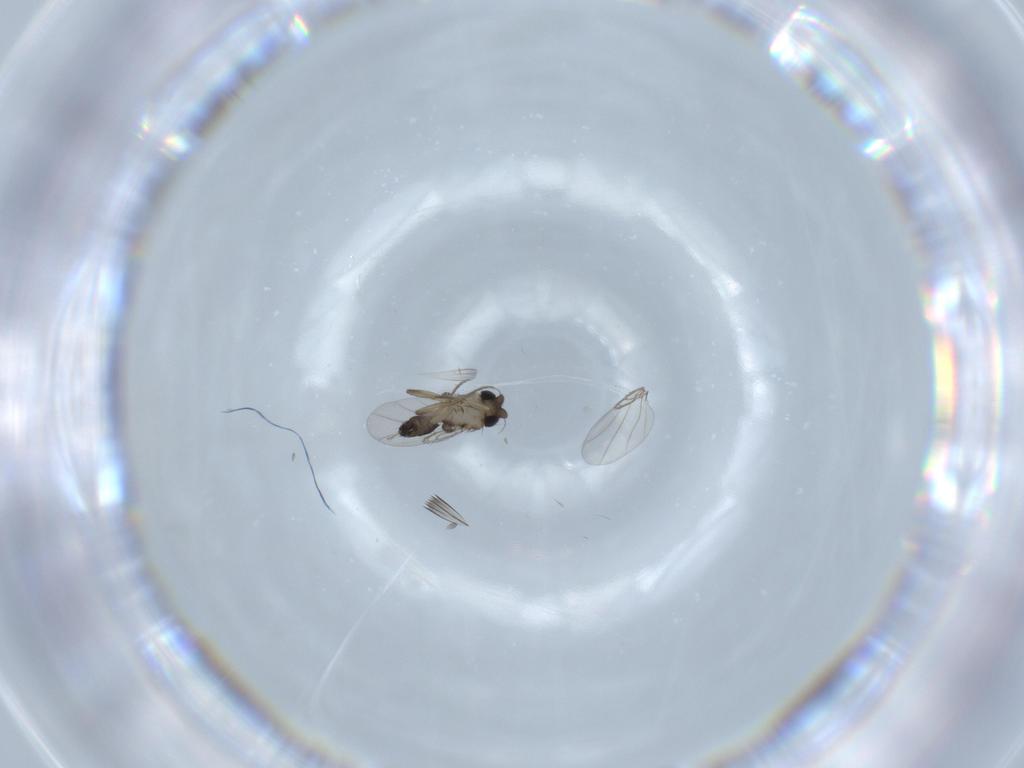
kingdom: Animalia
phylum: Arthropoda
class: Insecta
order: Diptera
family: Phoridae
